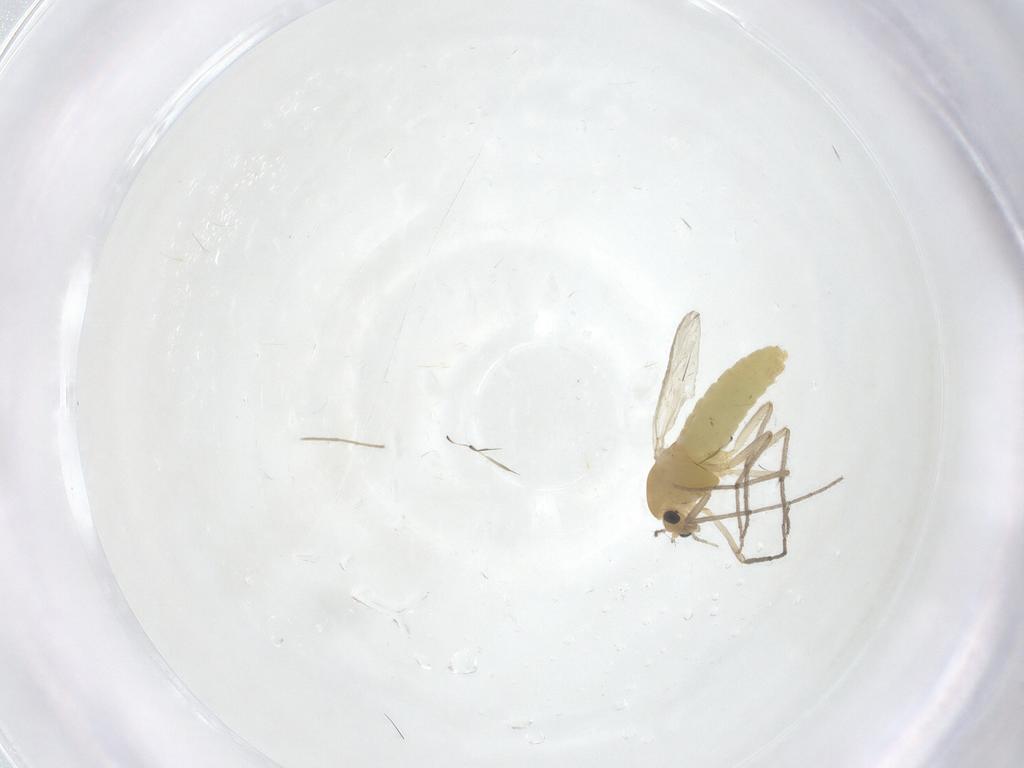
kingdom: Animalia
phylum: Arthropoda
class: Insecta
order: Diptera
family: Chironomidae
